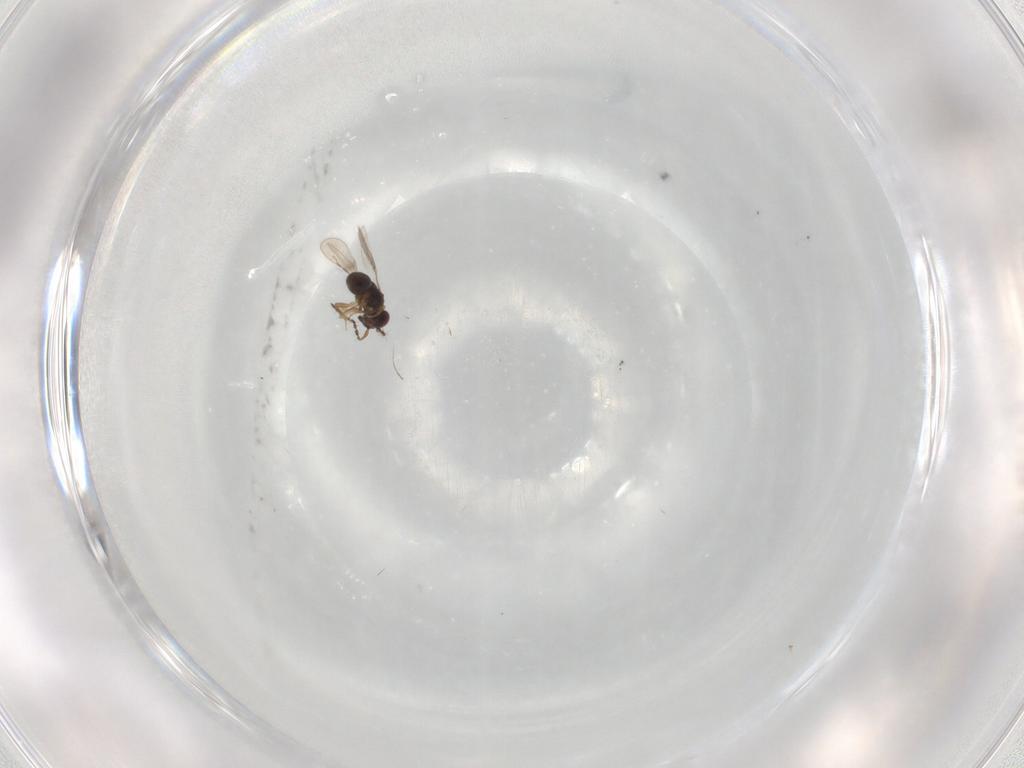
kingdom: Animalia
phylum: Arthropoda
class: Insecta
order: Hymenoptera
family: Ichneumonidae
